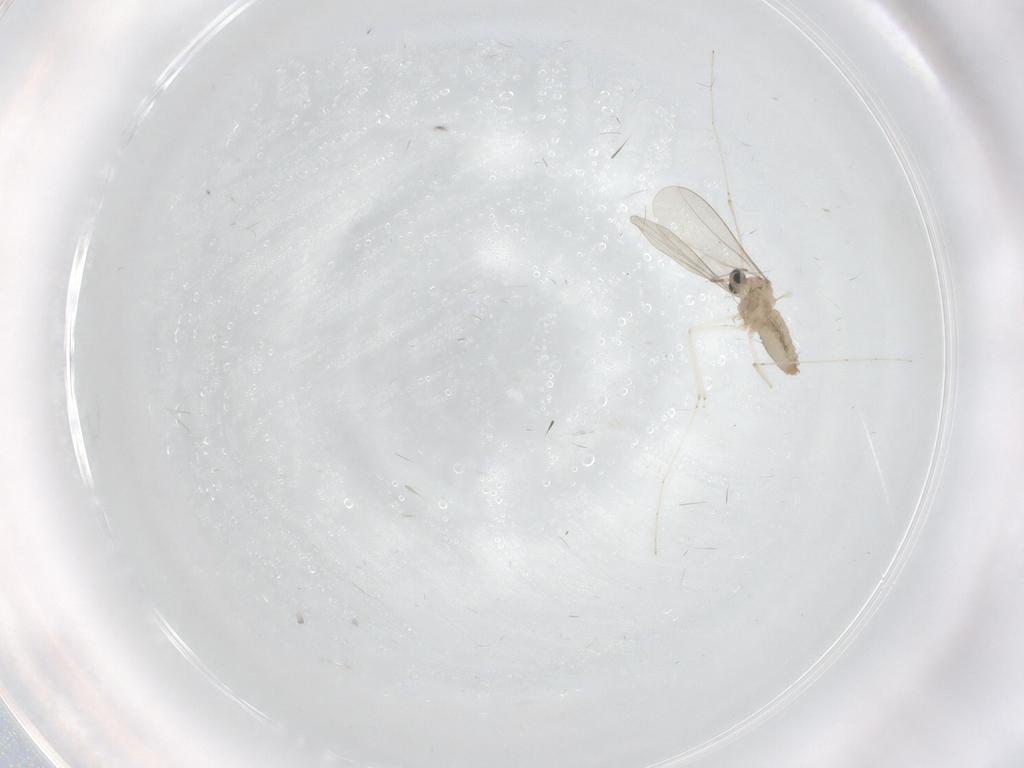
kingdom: Animalia
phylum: Arthropoda
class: Insecta
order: Diptera
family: Cecidomyiidae
